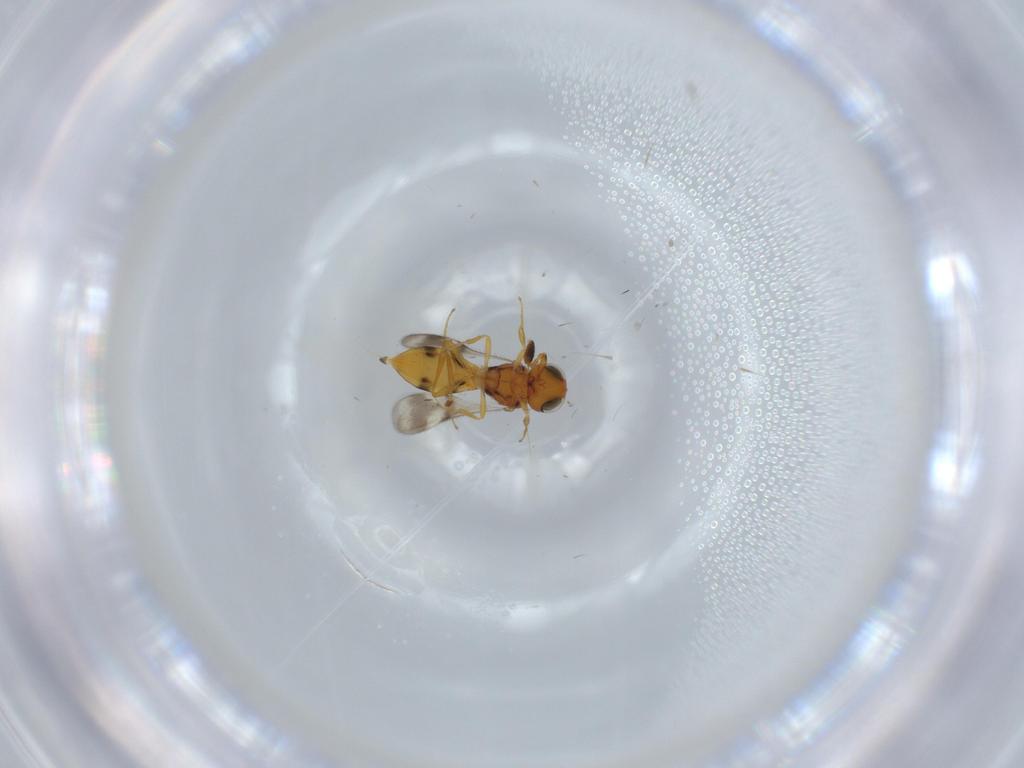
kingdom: Animalia
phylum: Arthropoda
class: Insecta
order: Hymenoptera
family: Scelionidae
